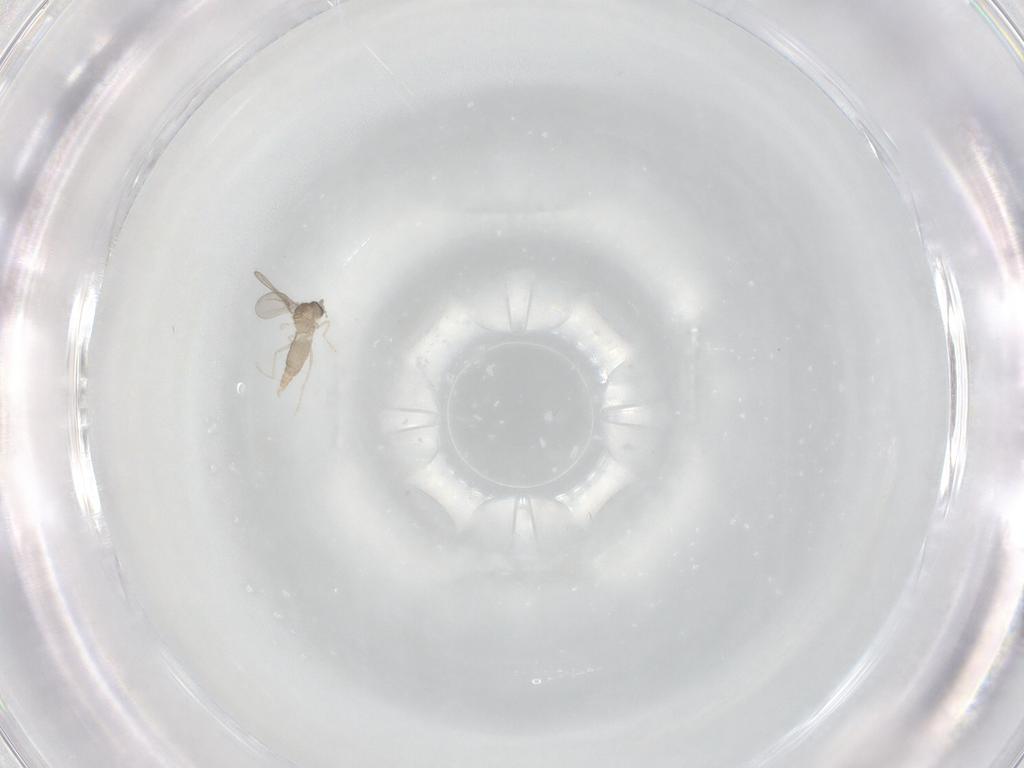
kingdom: Animalia
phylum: Arthropoda
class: Insecta
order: Diptera
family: Cecidomyiidae
